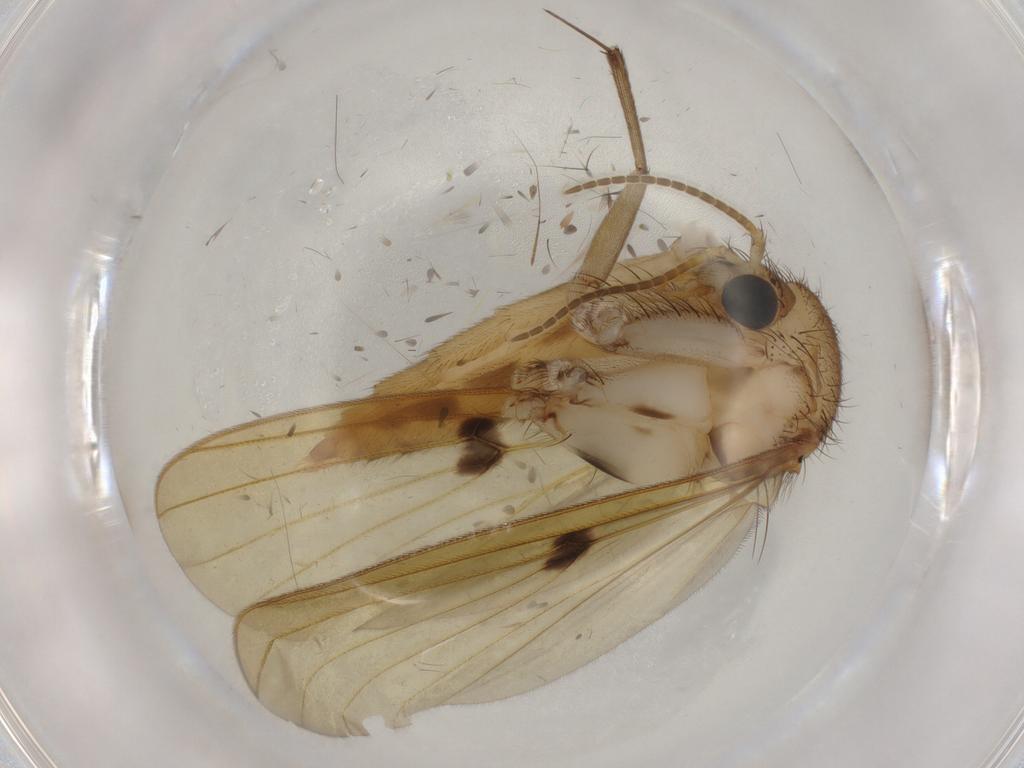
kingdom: Animalia
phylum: Arthropoda
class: Insecta
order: Diptera
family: Mycetophilidae
